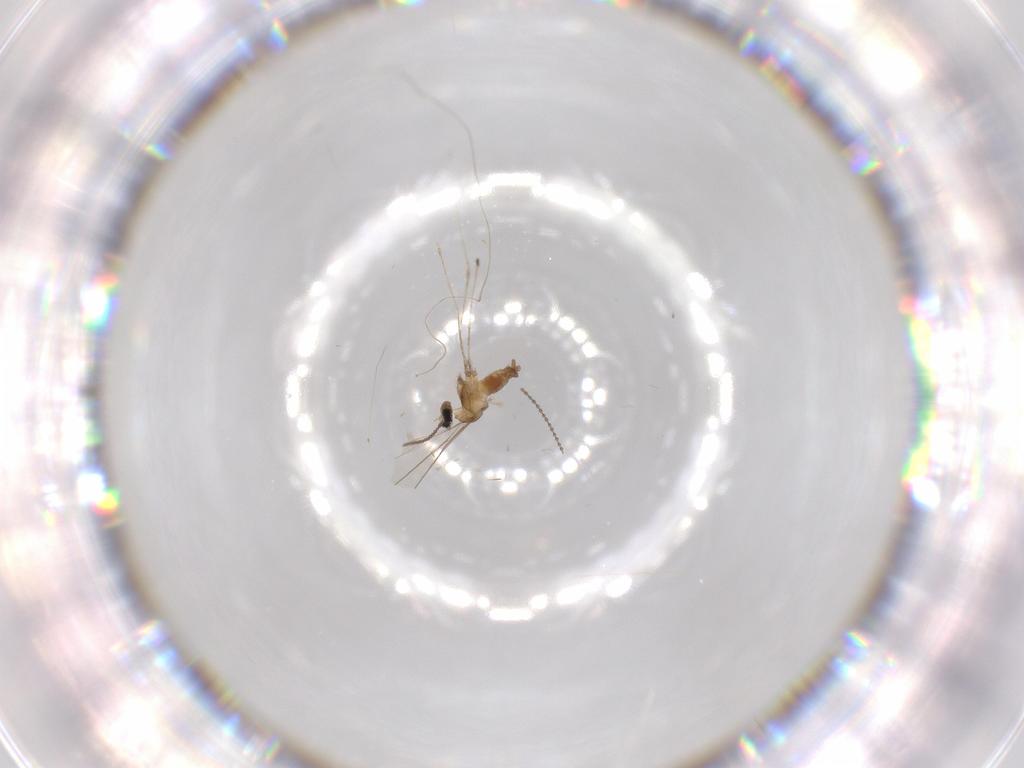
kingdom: Animalia
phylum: Arthropoda
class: Insecta
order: Diptera
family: Cecidomyiidae
